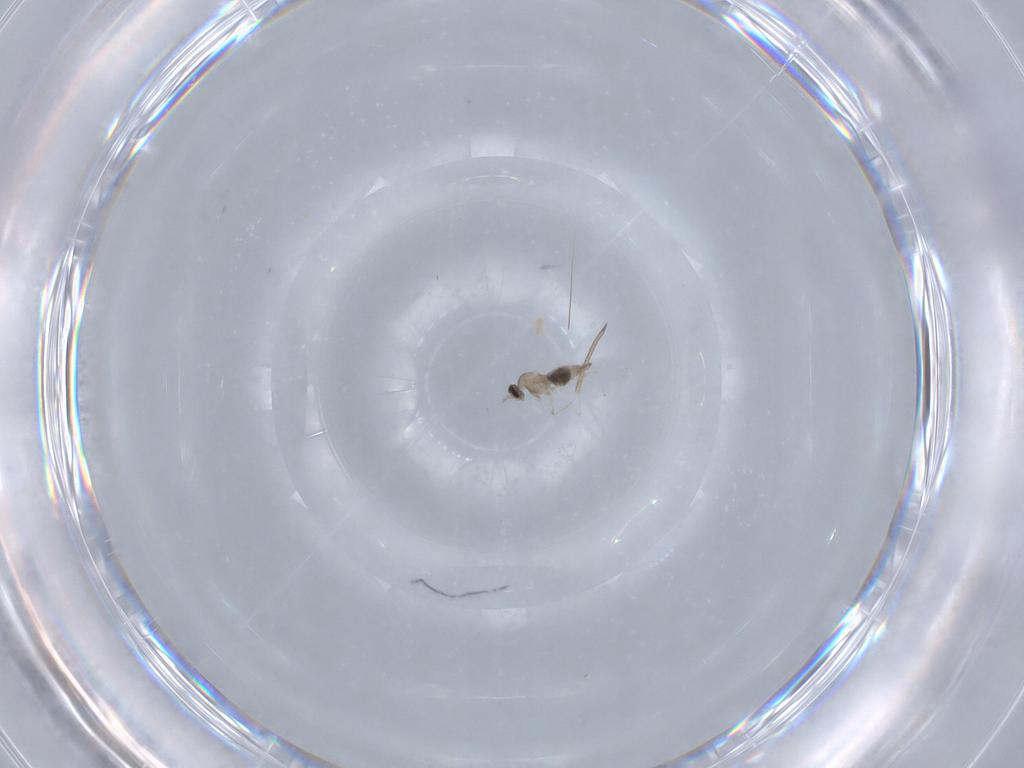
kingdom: Animalia
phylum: Arthropoda
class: Insecta
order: Diptera
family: Cecidomyiidae
